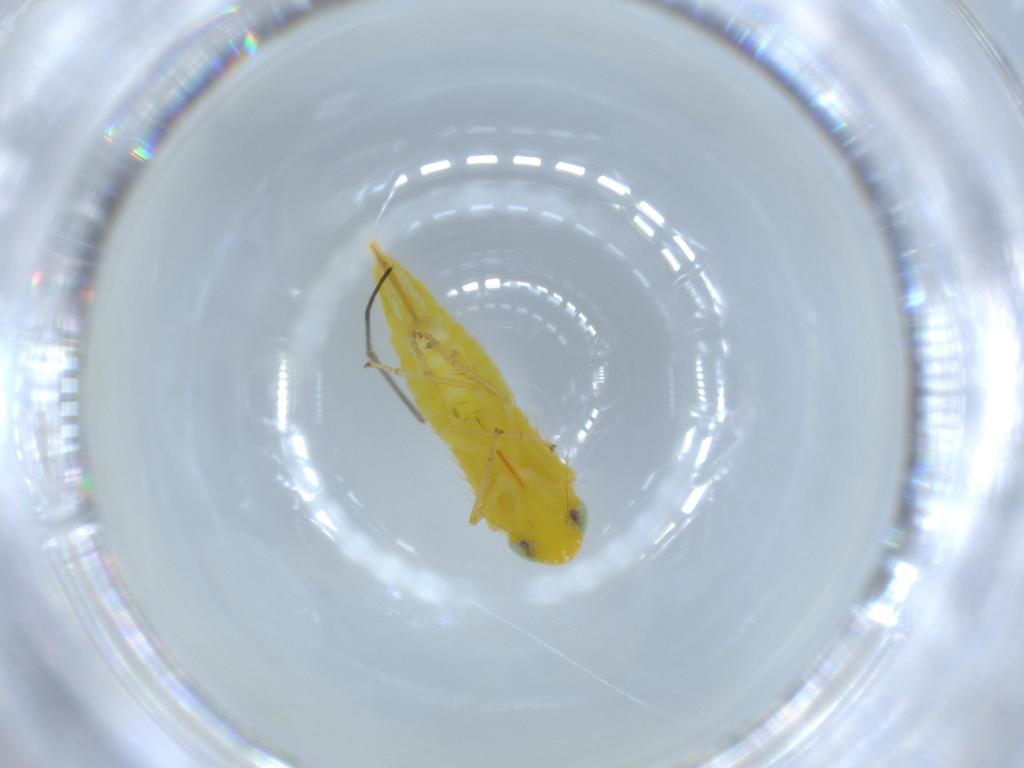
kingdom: Animalia
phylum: Arthropoda
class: Insecta
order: Hemiptera
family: Cicadellidae
